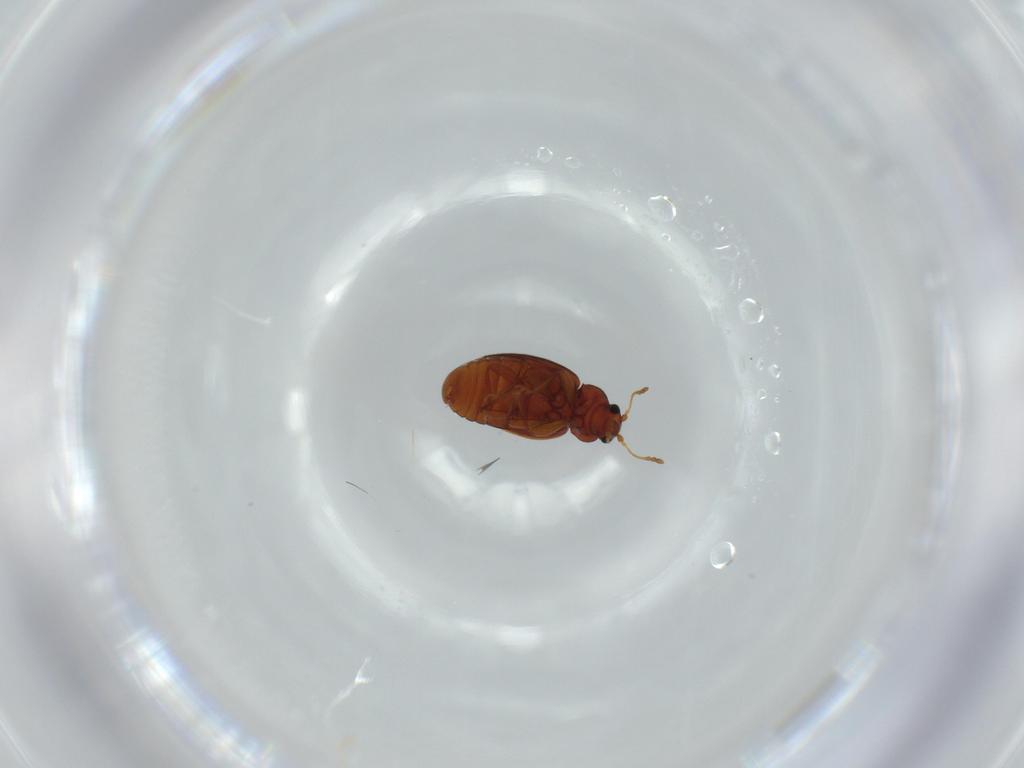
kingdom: Animalia
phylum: Arthropoda
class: Insecta
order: Coleoptera
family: Latridiidae
